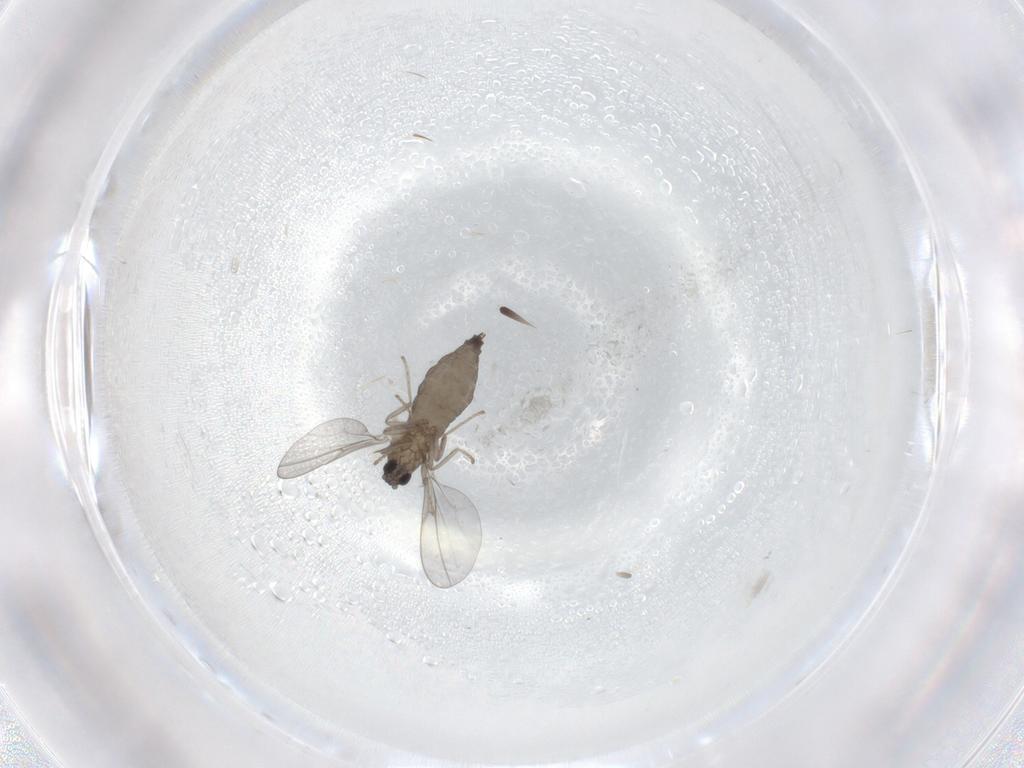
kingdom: Animalia
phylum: Arthropoda
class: Insecta
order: Diptera
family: Cecidomyiidae
